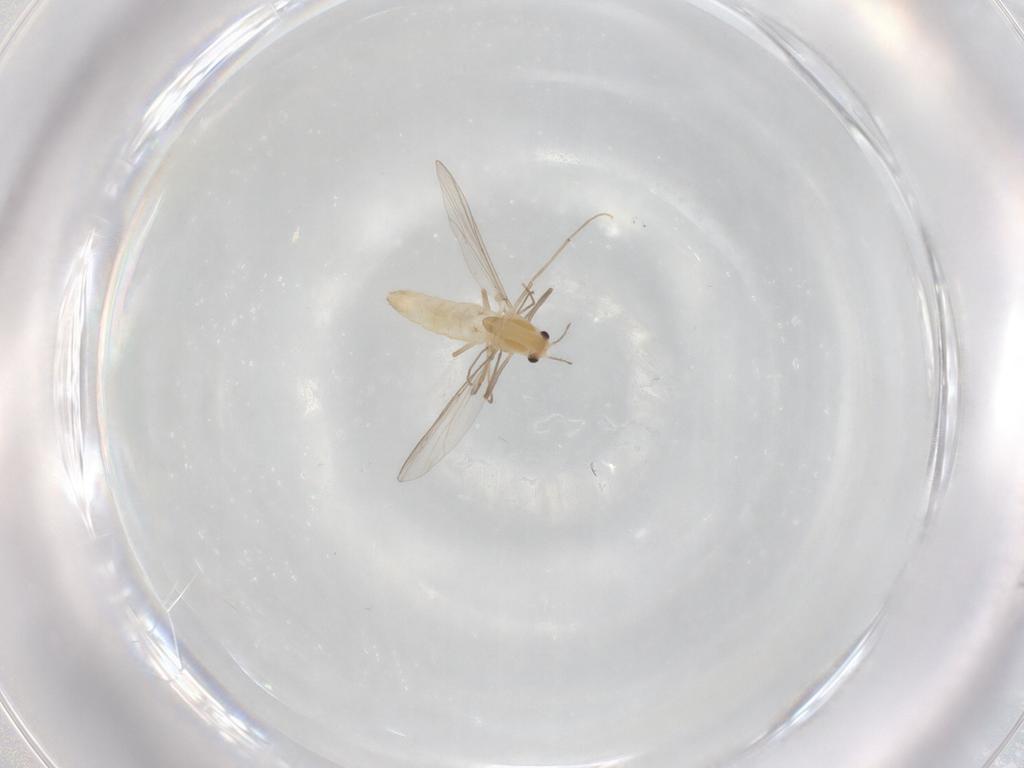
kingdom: Animalia
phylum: Arthropoda
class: Insecta
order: Diptera
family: Chironomidae
